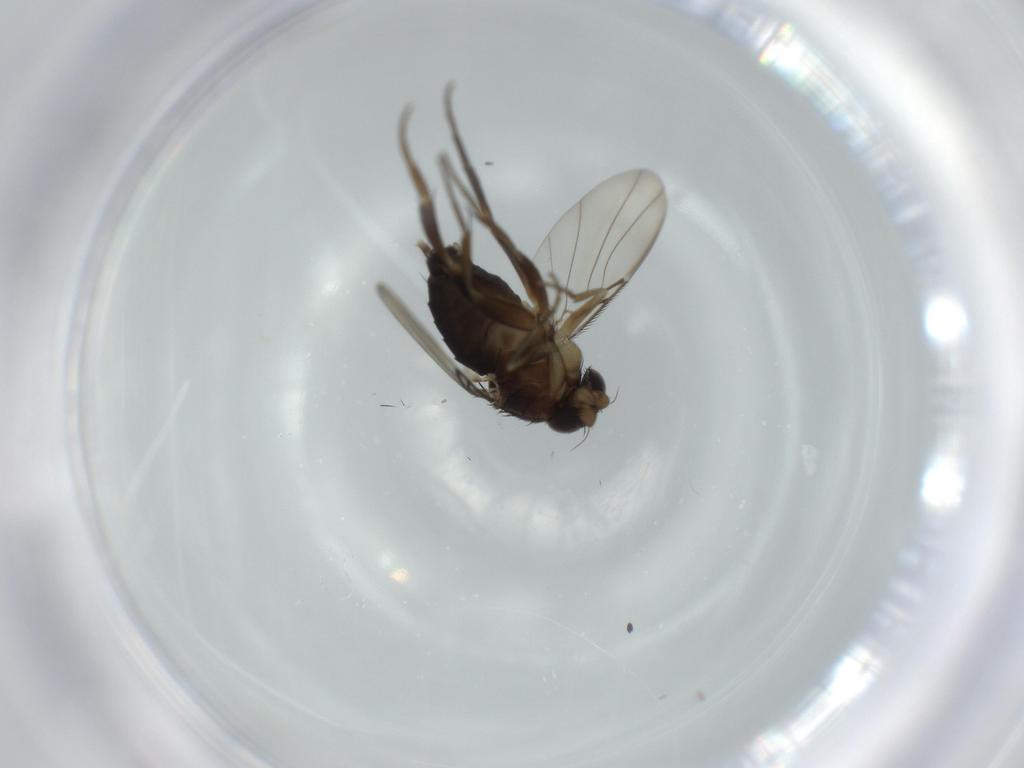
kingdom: Animalia
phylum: Arthropoda
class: Insecta
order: Diptera
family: Phoridae
